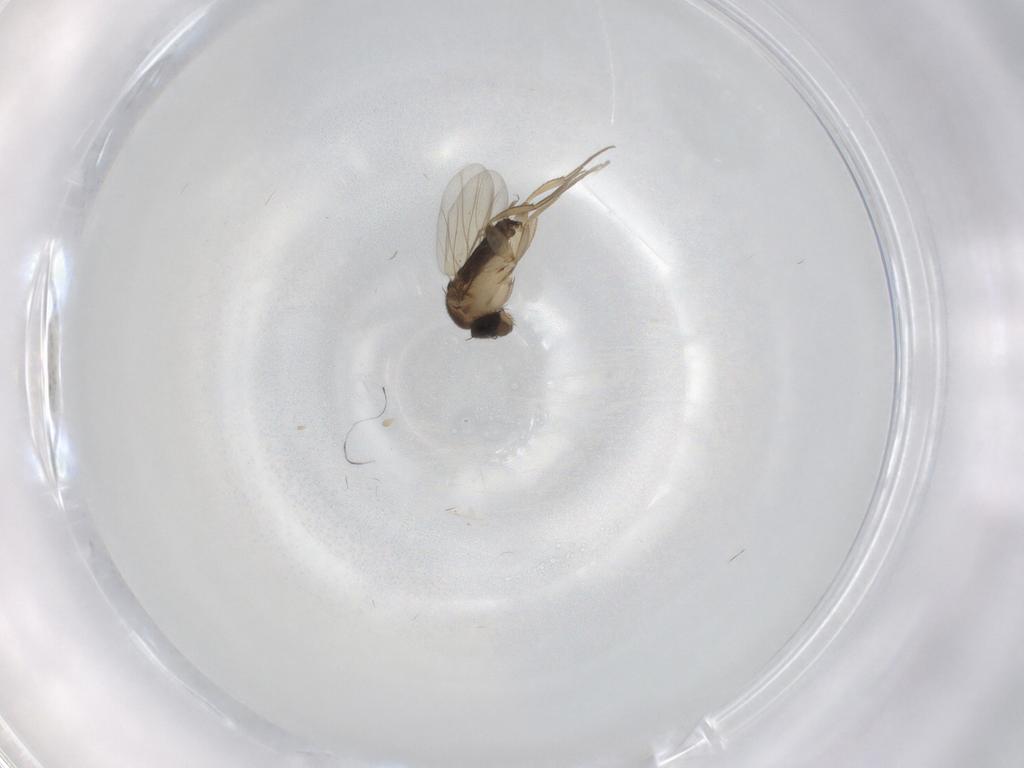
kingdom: Animalia
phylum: Arthropoda
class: Insecta
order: Diptera
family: Phoridae
